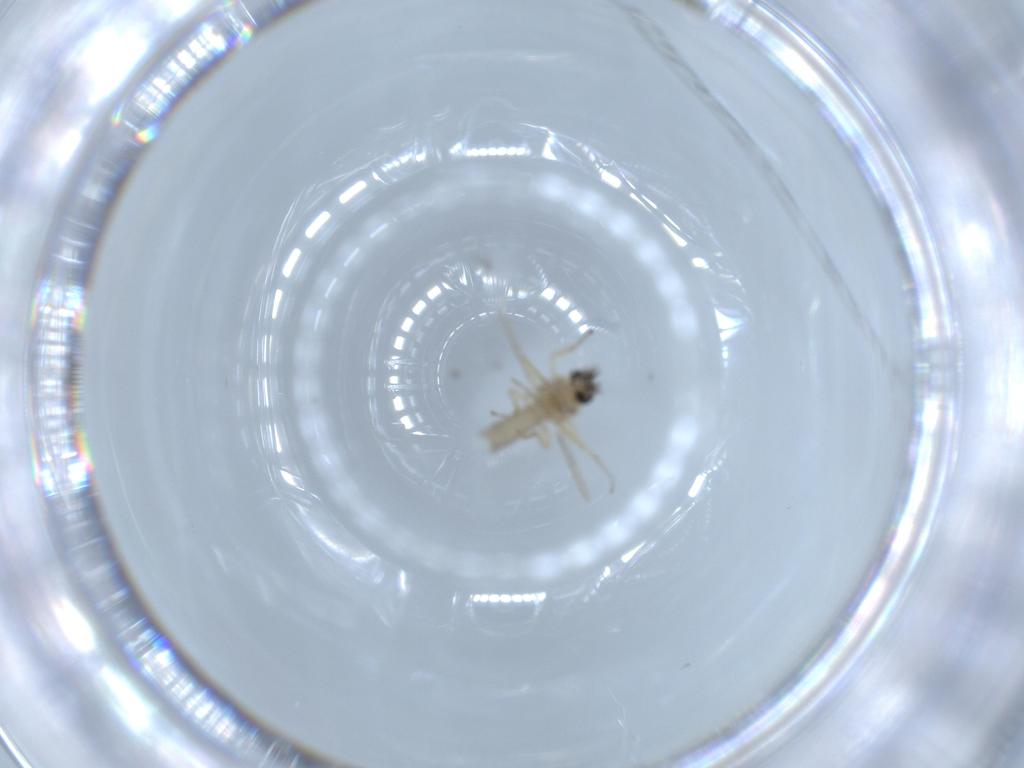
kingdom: Animalia
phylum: Arthropoda
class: Insecta
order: Diptera
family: Ceratopogonidae
